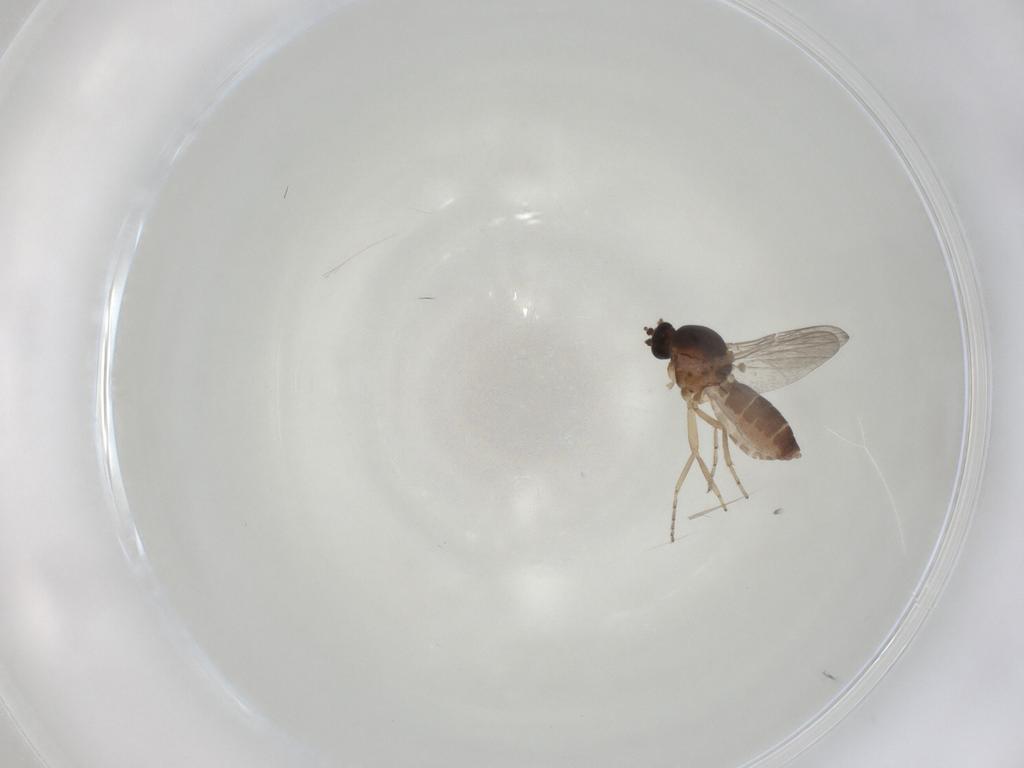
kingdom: Animalia
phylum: Arthropoda
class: Insecta
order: Diptera
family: Ceratopogonidae
